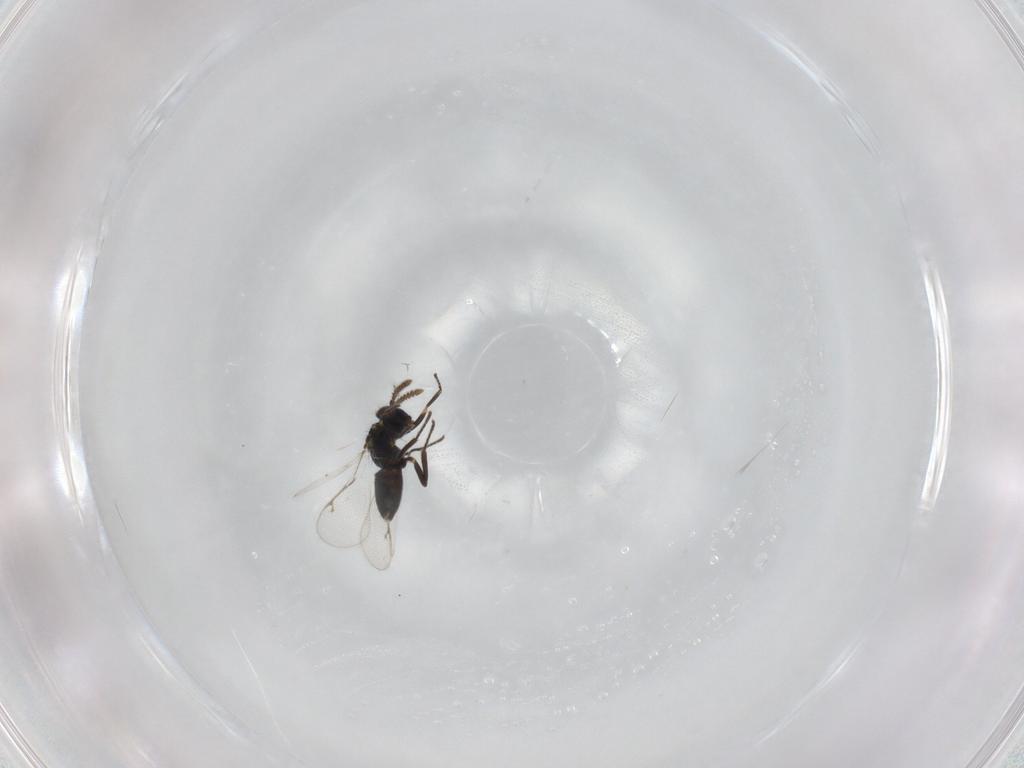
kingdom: Animalia
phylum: Arthropoda
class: Insecta
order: Hymenoptera
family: Pirenidae
